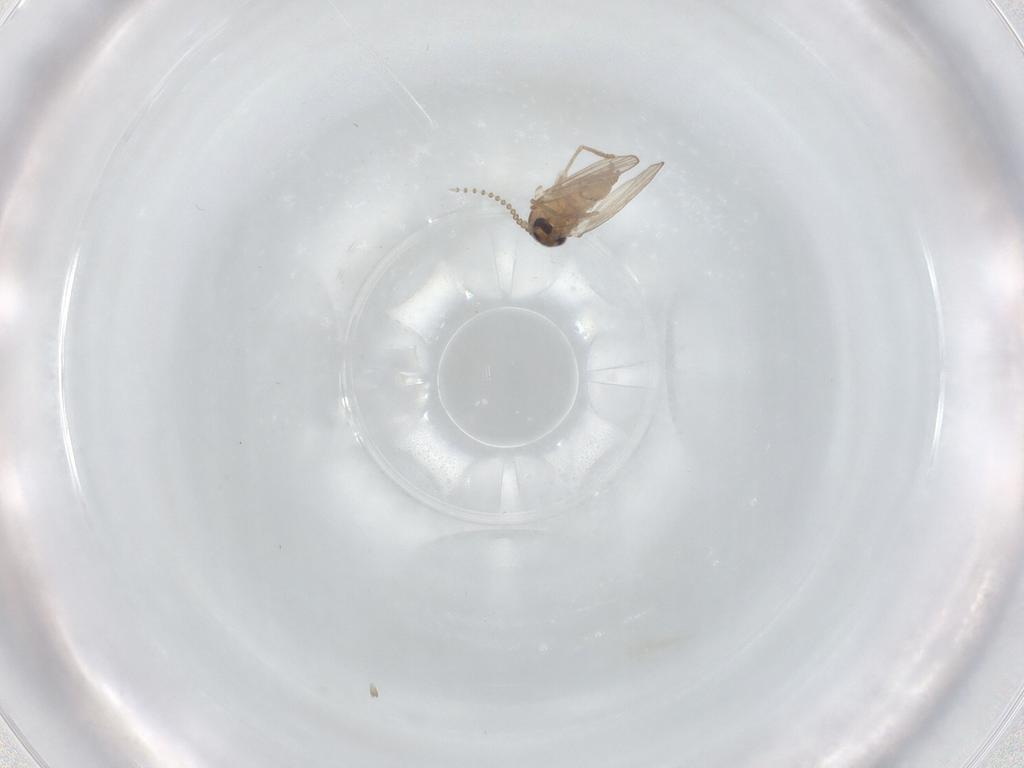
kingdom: Animalia
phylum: Arthropoda
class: Insecta
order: Diptera
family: Psychodidae
